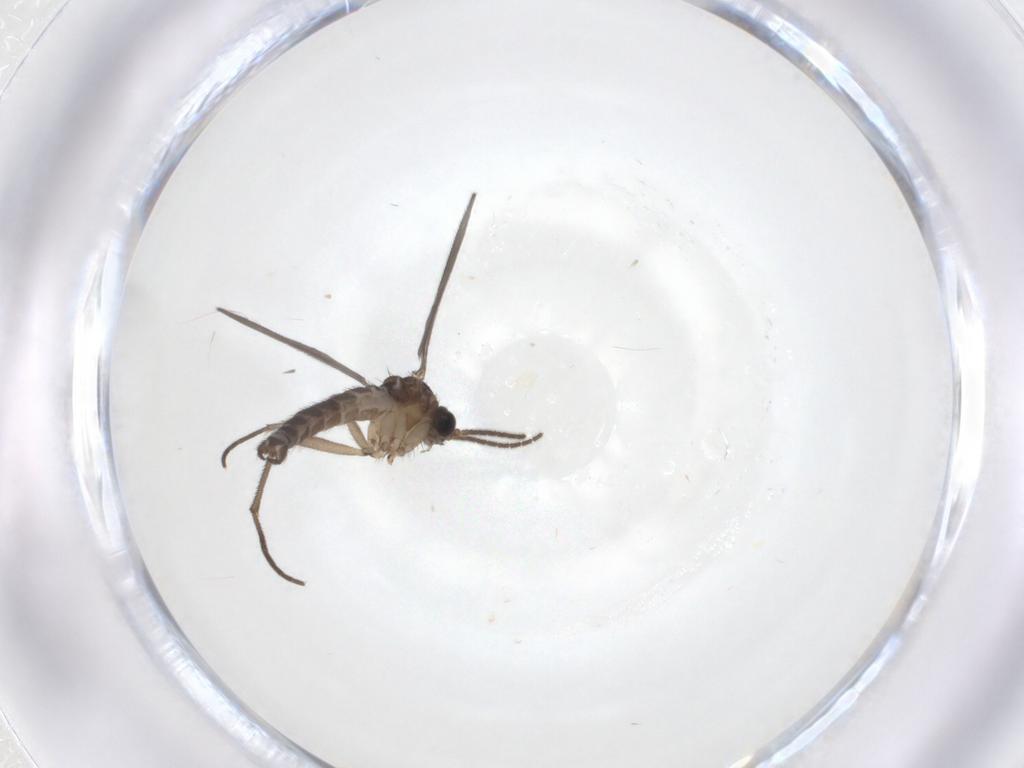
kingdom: Animalia
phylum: Arthropoda
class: Insecta
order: Diptera
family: Sciaridae
